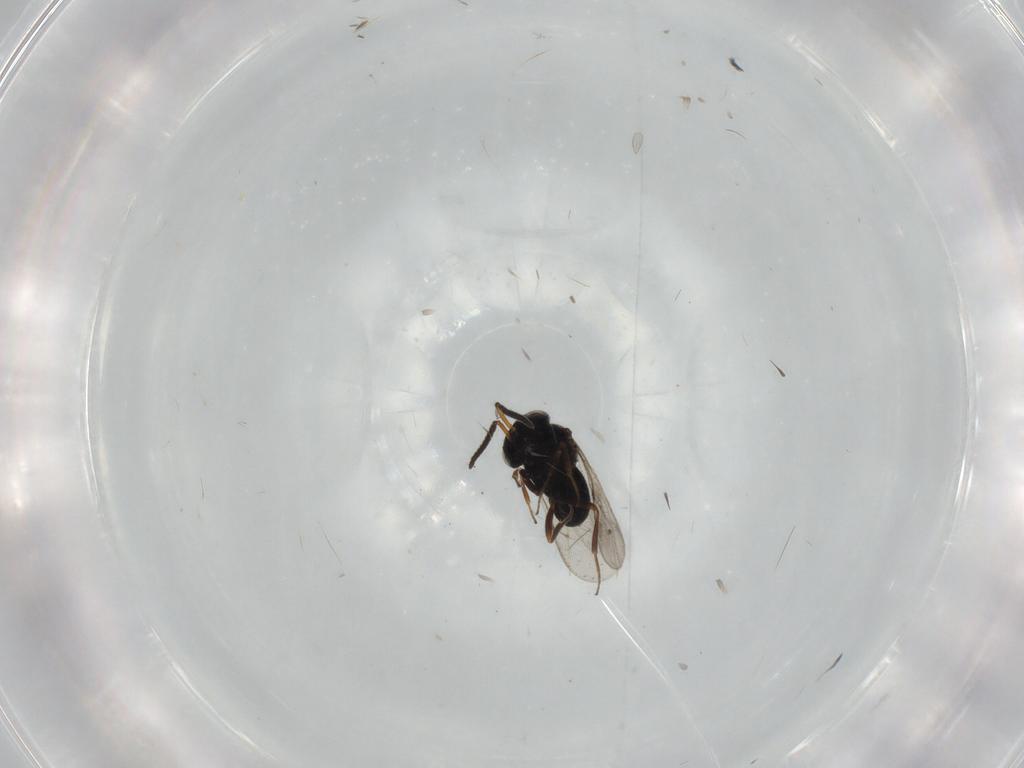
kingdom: Animalia
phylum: Arthropoda
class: Insecta
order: Hymenoptera
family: Scelionidae
